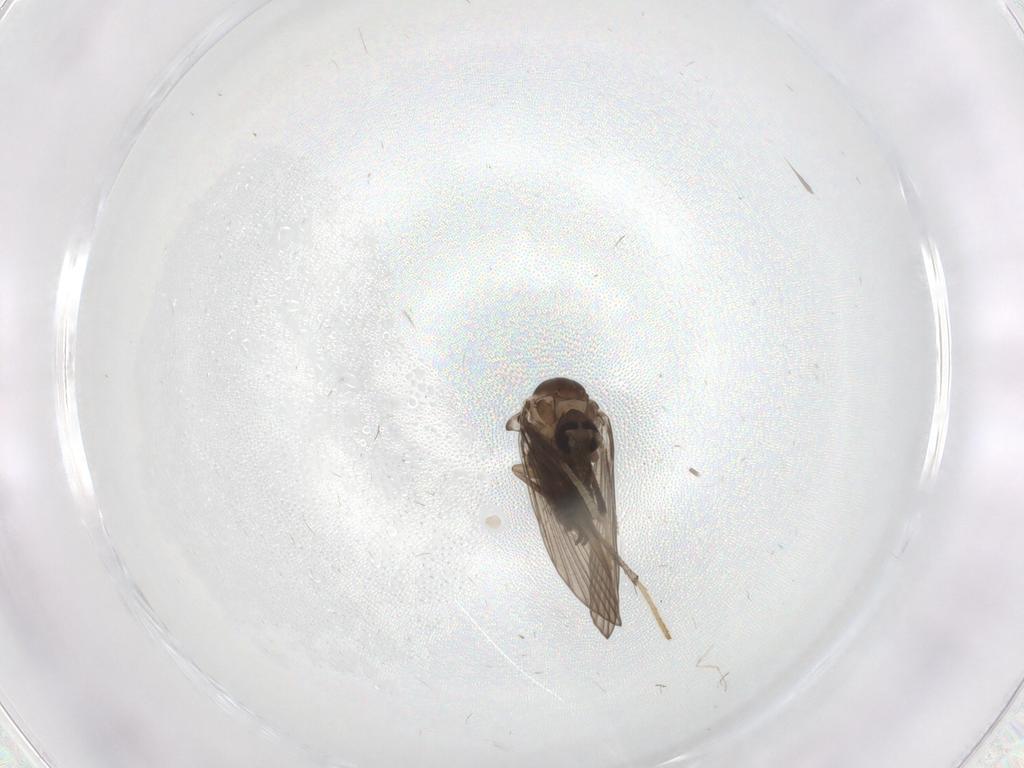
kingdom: Animalia
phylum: Arthropoda
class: Insecta
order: Diptera
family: Psychodidae
